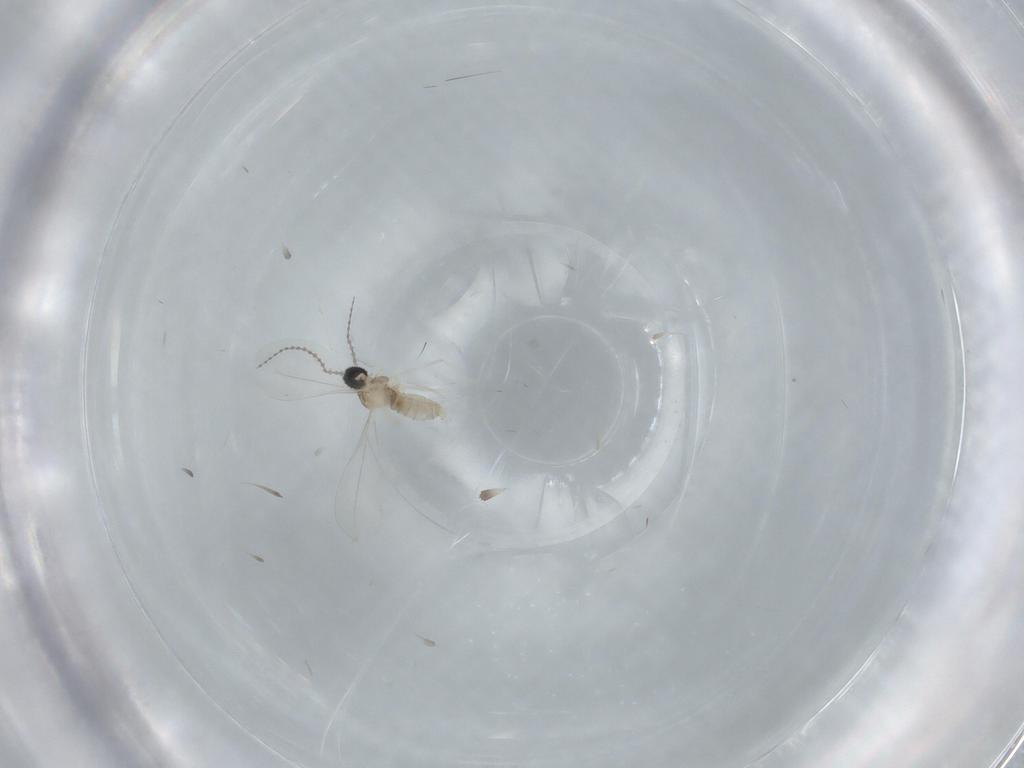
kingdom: Animalia
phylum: Arthropoda
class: Insecta
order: Diptera
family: Cecidomyiidae
